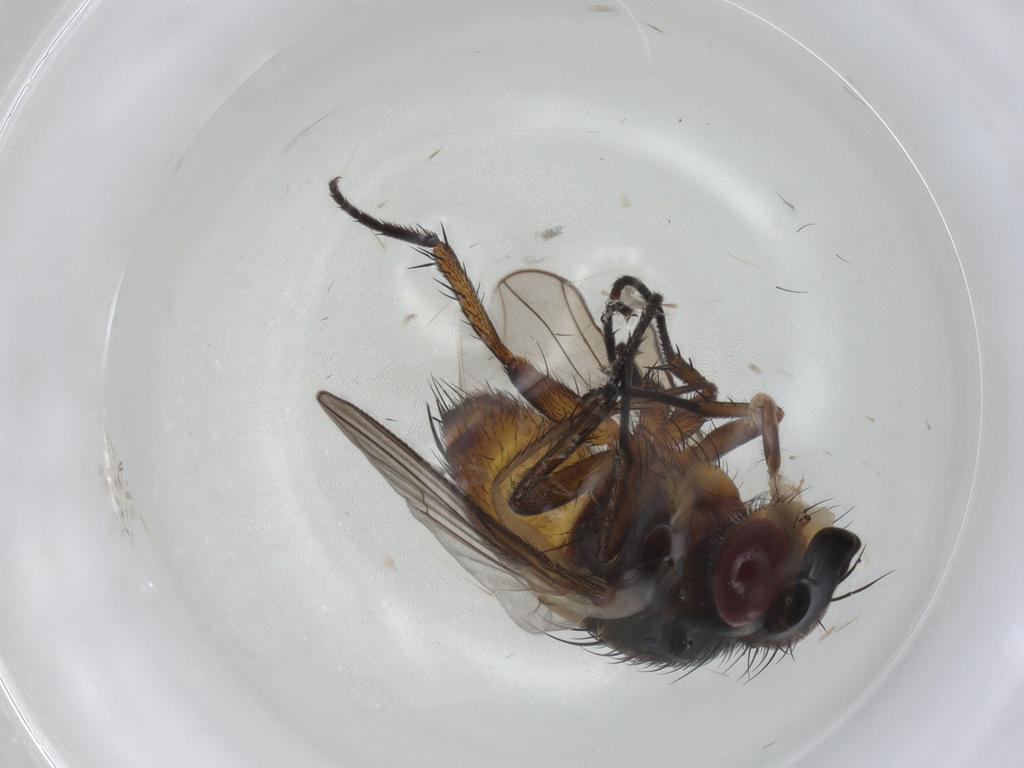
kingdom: Animalia
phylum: Arthropoda
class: Insecta
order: Diptera
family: Tachinidae
